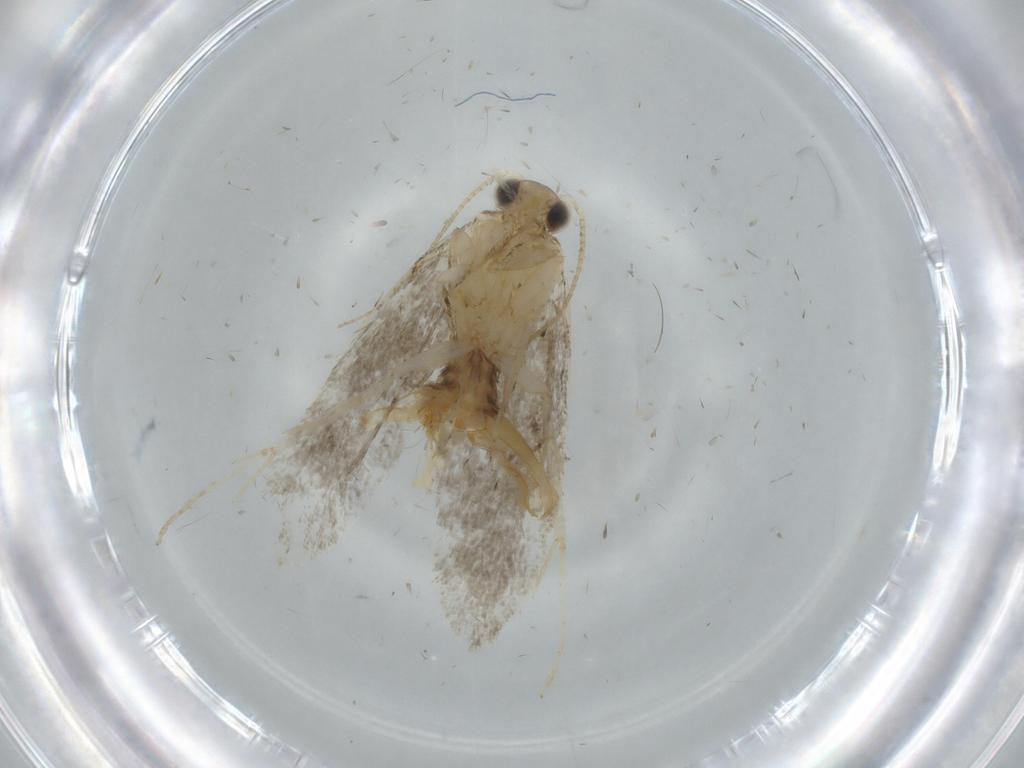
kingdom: Animalia
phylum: Arthropoda
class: Insecta
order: Lepidoptera
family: Tineidae
